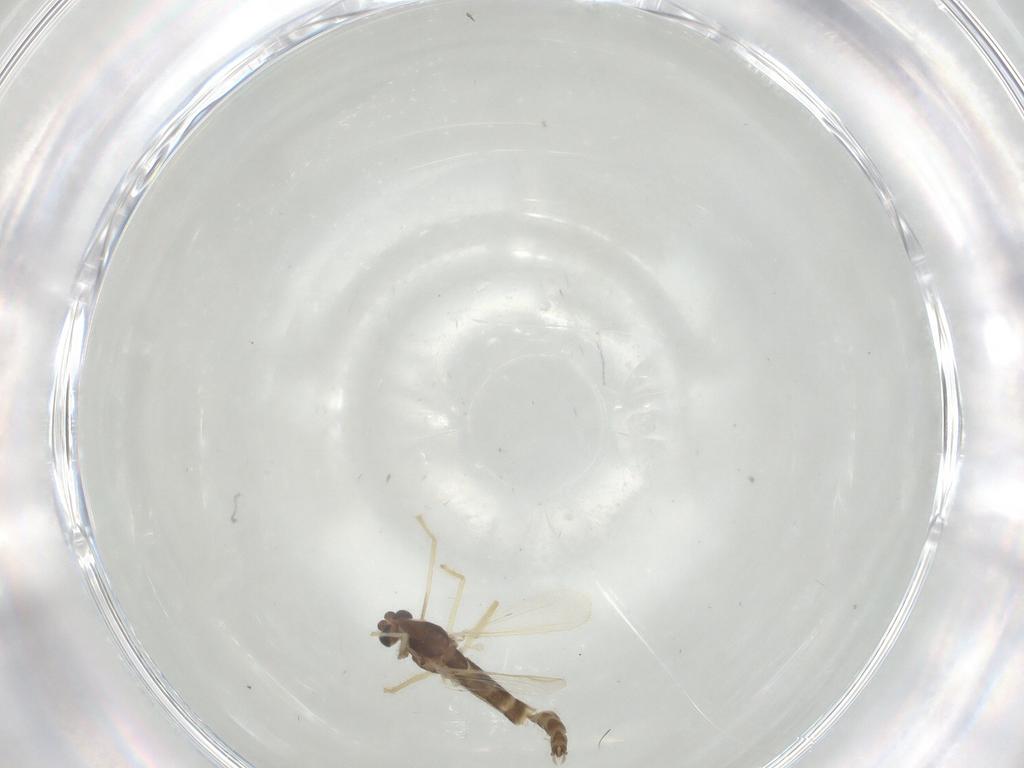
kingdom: Animalia
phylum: Arthropoda
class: Insecta
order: Diptera
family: Chironomidae
